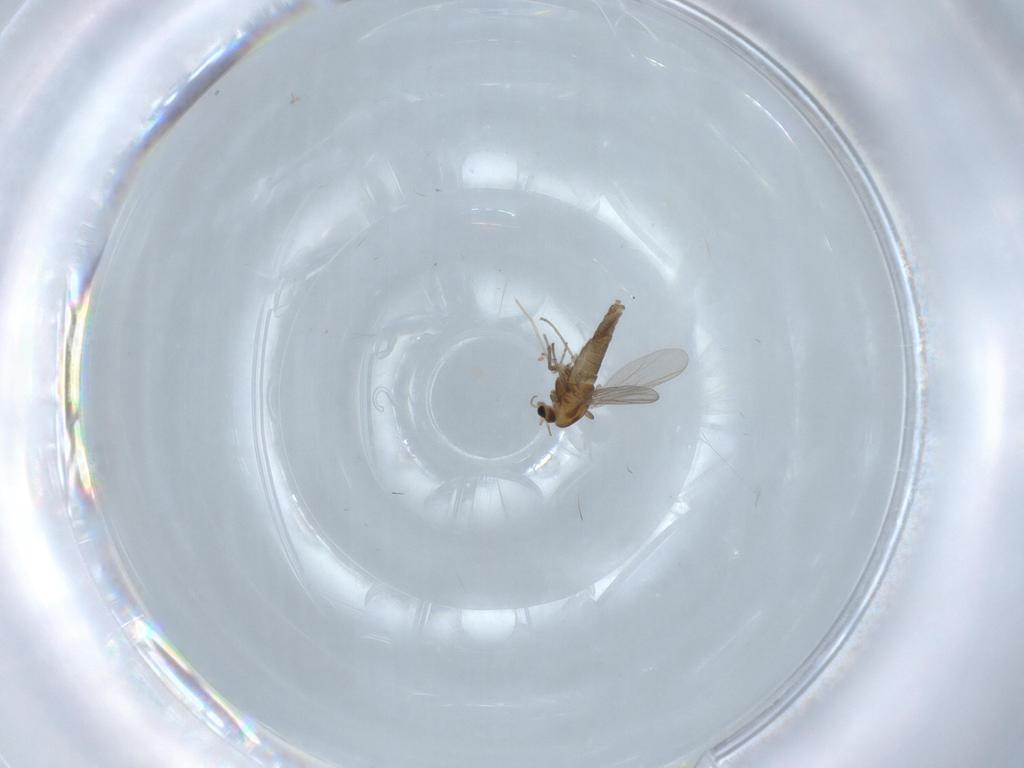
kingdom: Animalia
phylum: Arthropoda
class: Insecta
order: Diptera
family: Chironomidae
